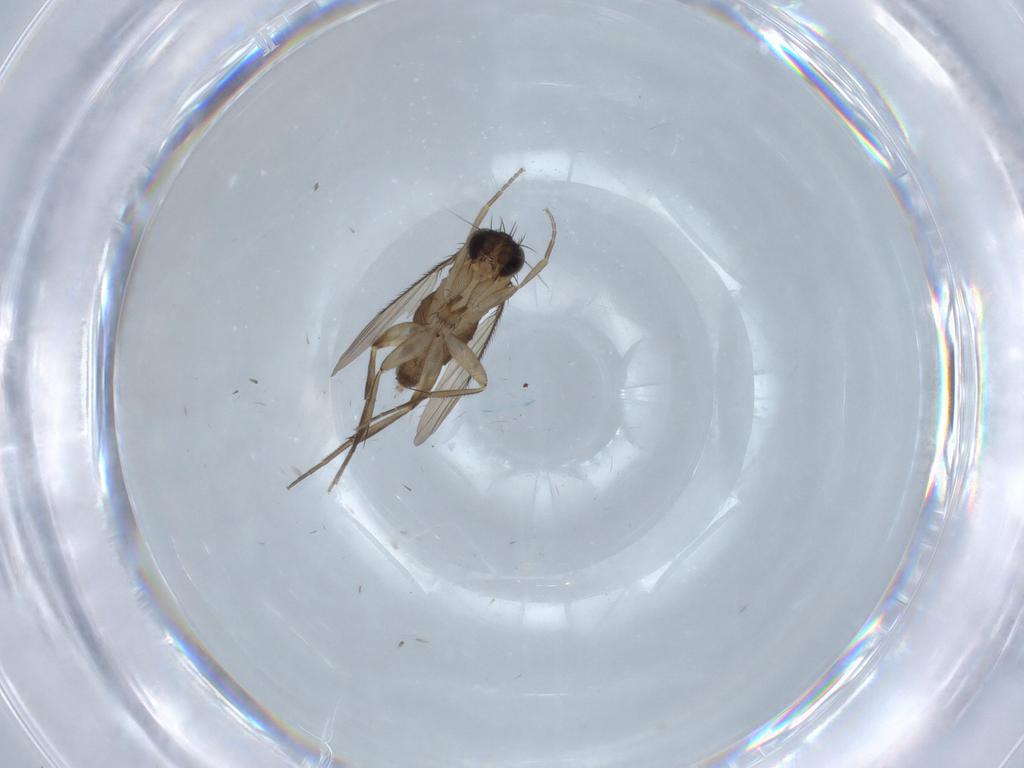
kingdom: Animalia
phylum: Arthropoda
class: Insecta
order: Diptera
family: Phoridae
